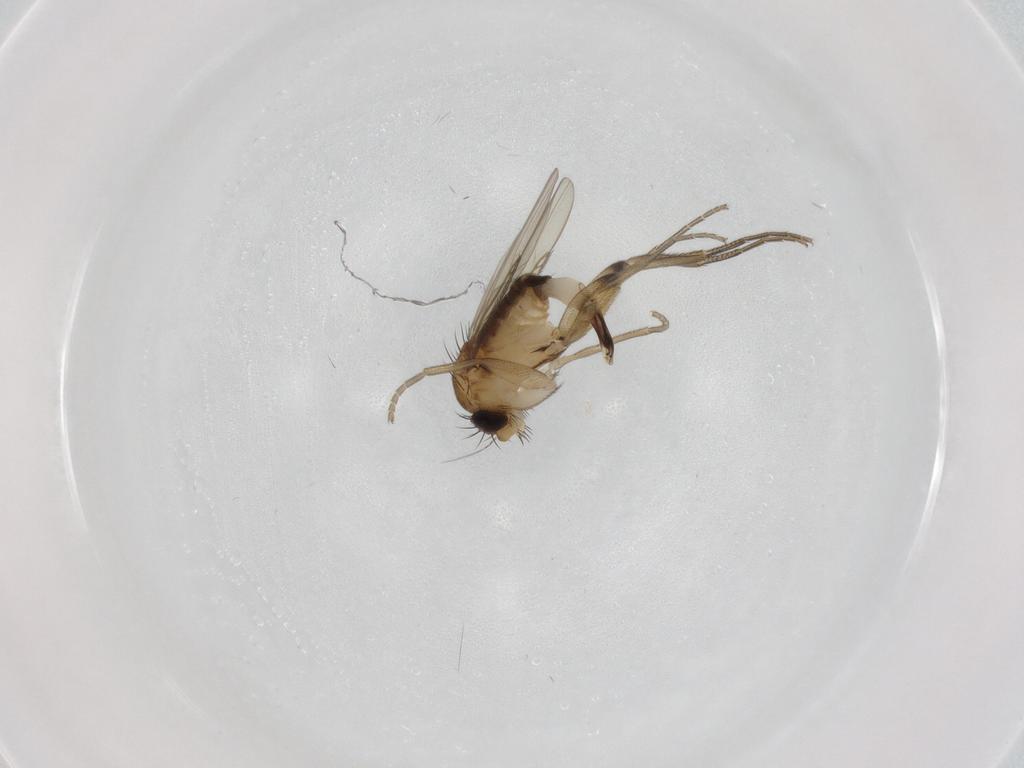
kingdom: Animalia
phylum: Arthropoda
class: Insecta
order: Diptera
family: Phoridae
